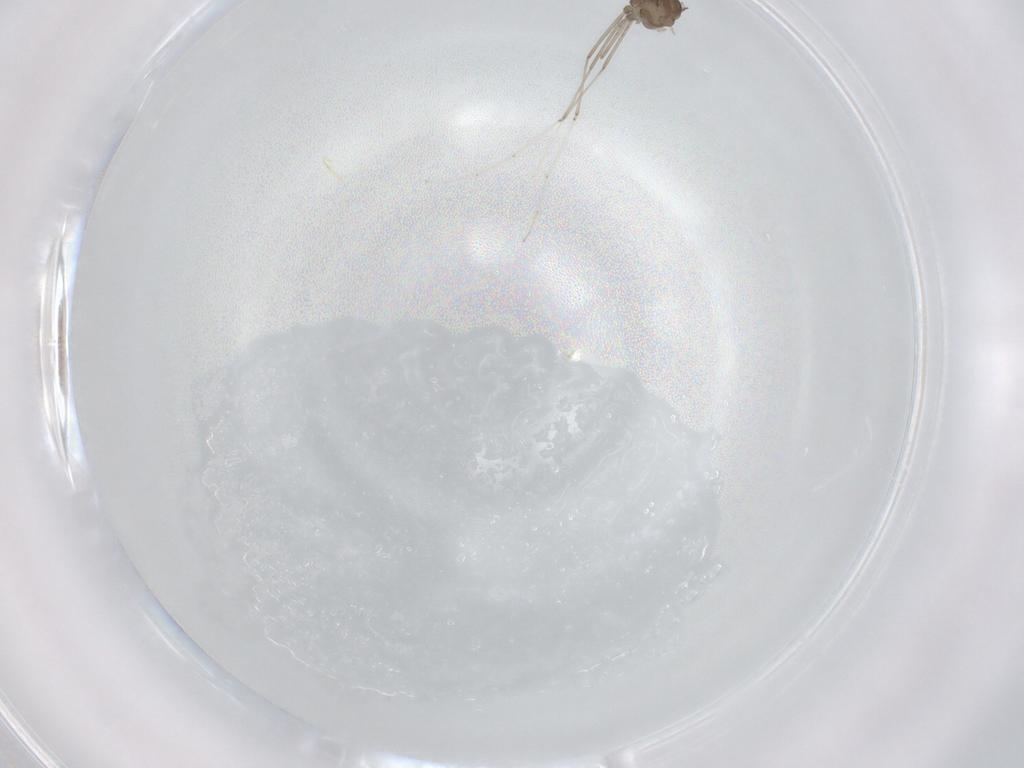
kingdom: Animalia
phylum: Arthropoda
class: Insecta
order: Diptera
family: Cecidomyiidae
